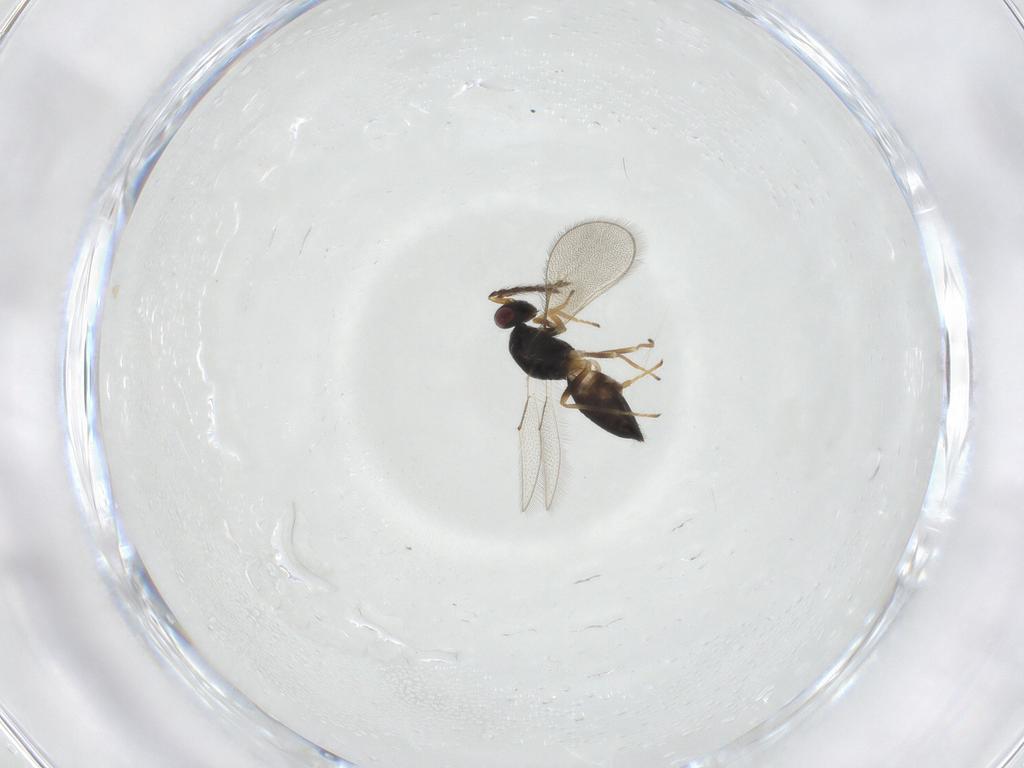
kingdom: Animalia
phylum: Arthropoda
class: Insecta
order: Hymenoptera
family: Eulophidae
